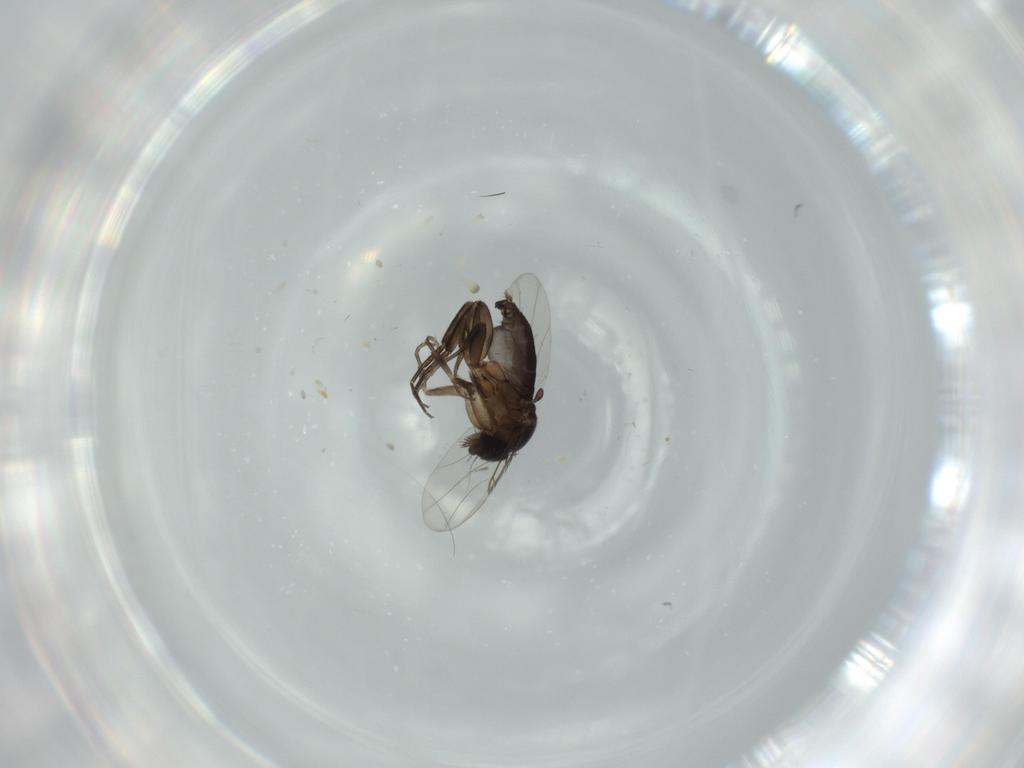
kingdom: Animalia
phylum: Arthropoda
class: Insecta
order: Diptera
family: Phoridae
